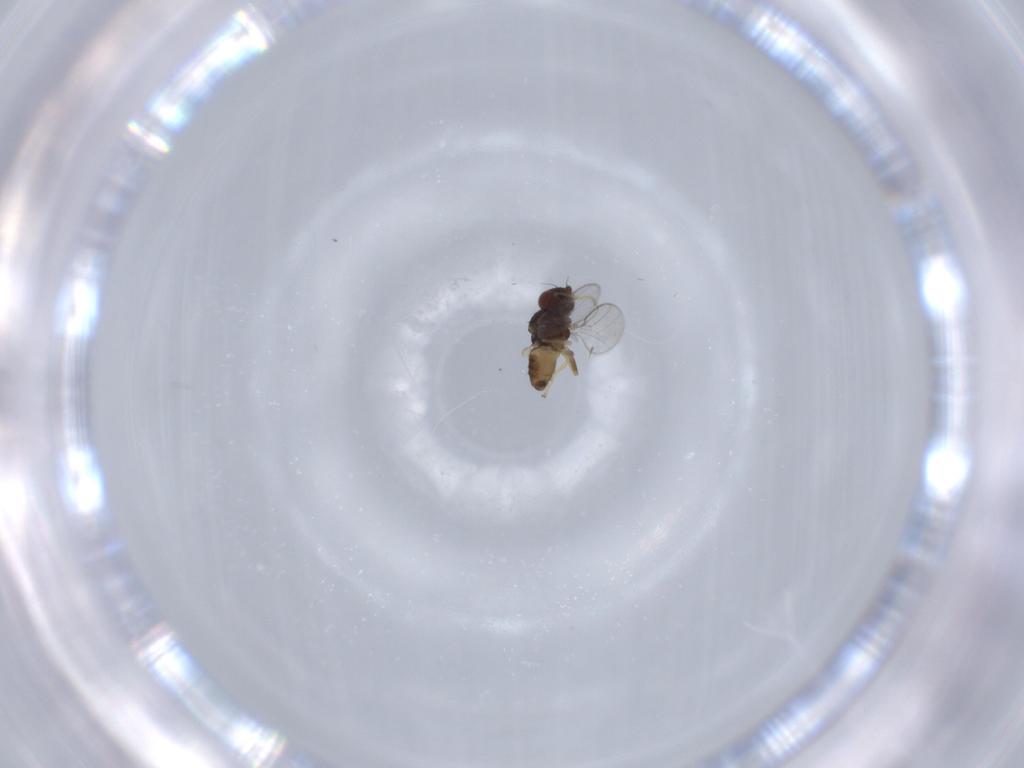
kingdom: Animalia
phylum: Arthropoda
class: Insecta
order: Diptera
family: Chloropidae
